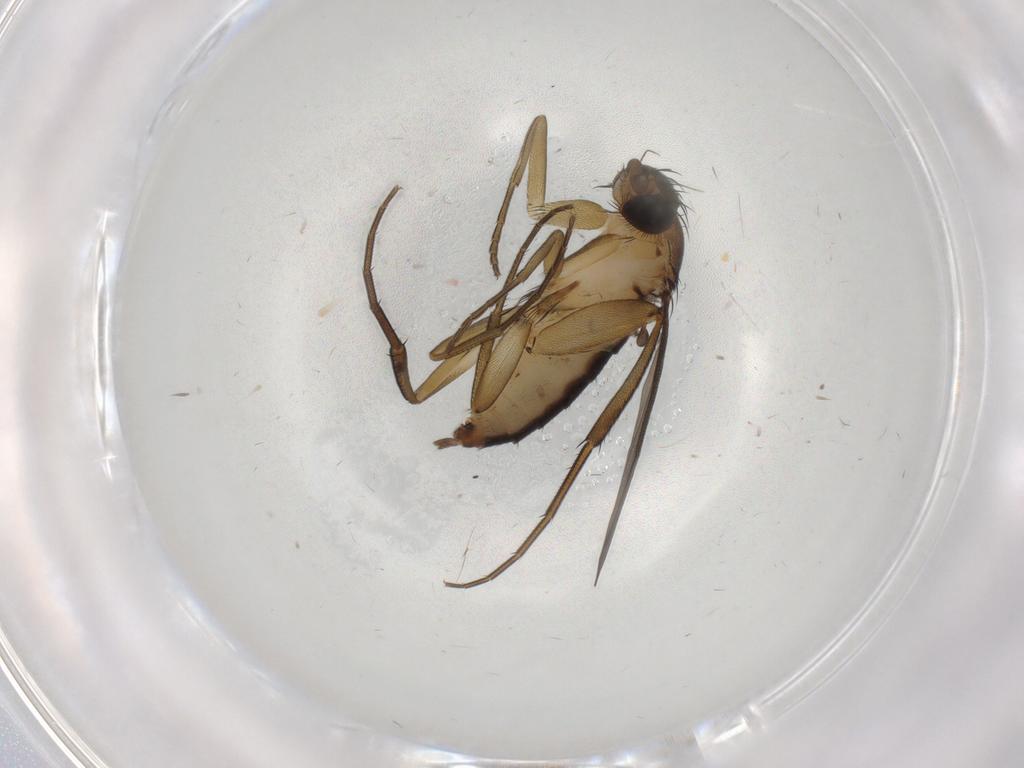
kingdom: Animalia
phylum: Arthropoda
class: Insecta
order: Diptera
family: Phoridae
